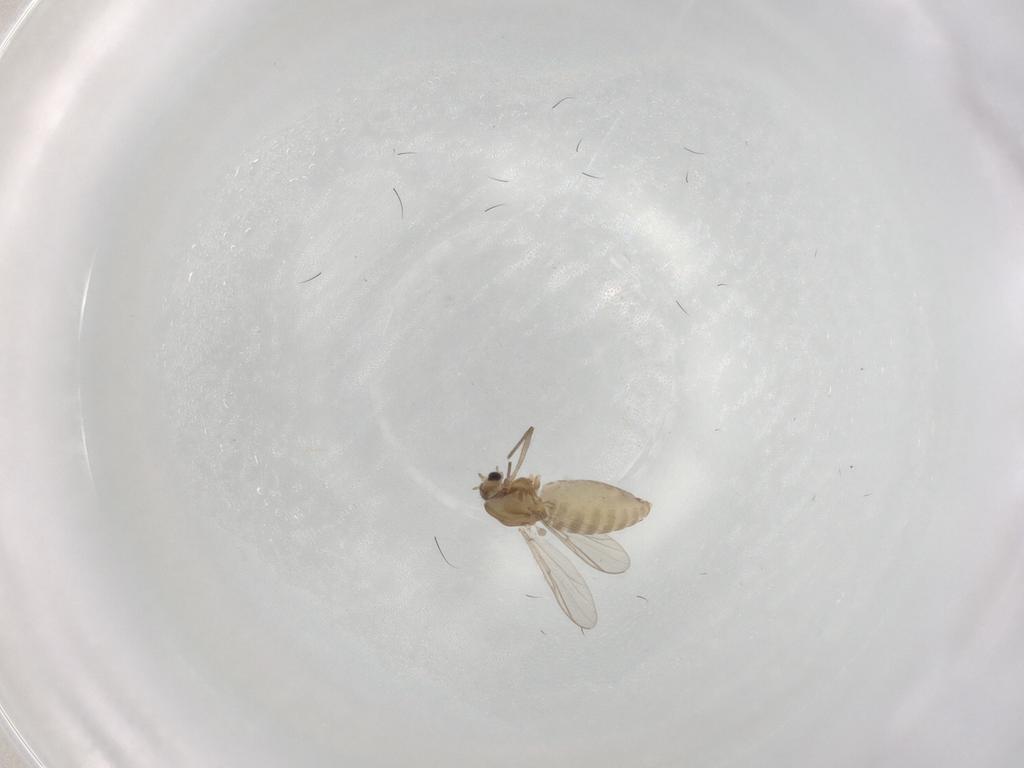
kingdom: Animalia
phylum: Arthropoda
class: Insecta
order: Diptera
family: Chironomidae
